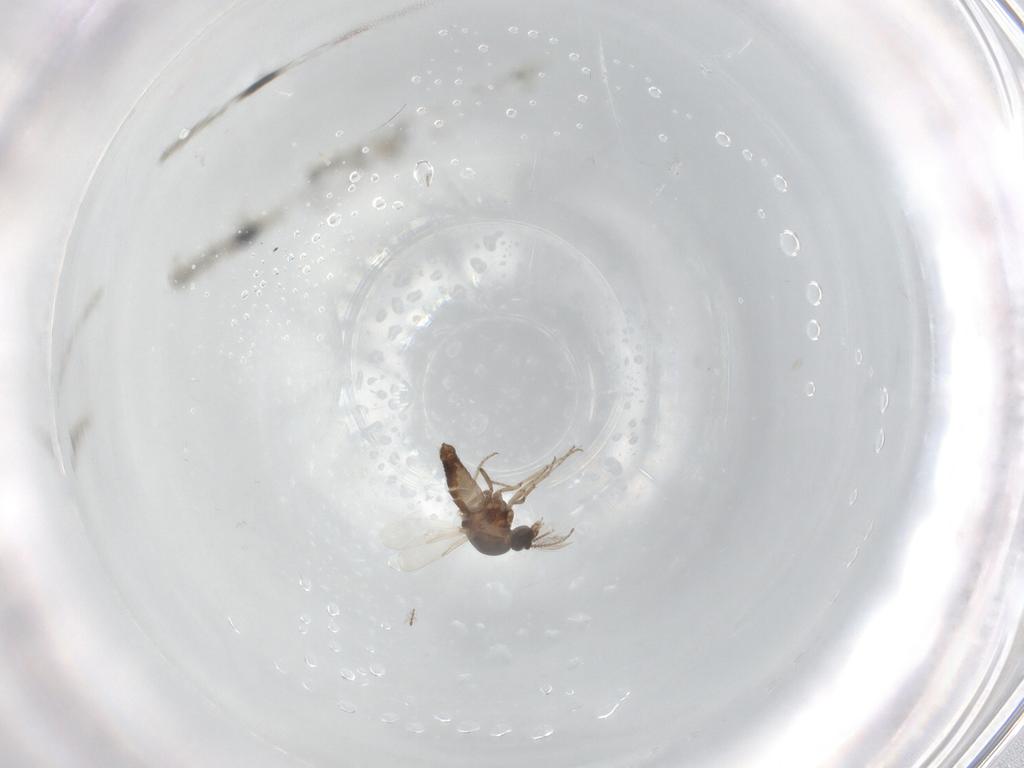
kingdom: Animalia
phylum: Arthropoda
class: Insecta
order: Diptera
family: Ceratopogonidae
